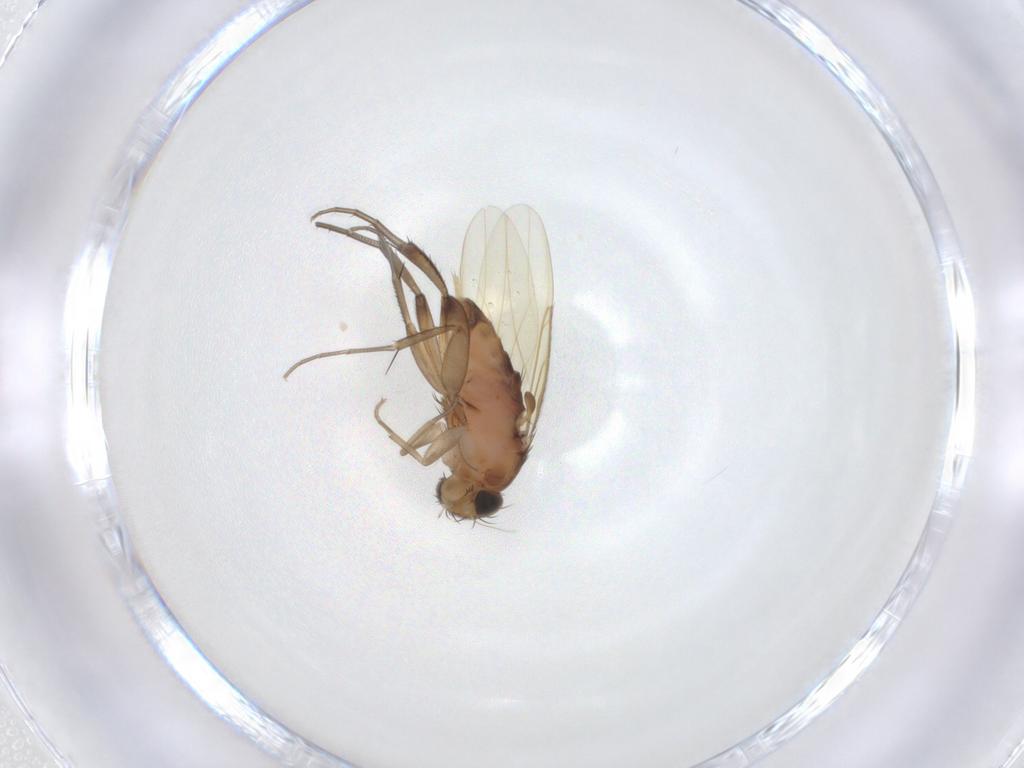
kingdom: Animalia
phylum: Arthropoda
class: Insecta
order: Diptera
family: Phoridae
